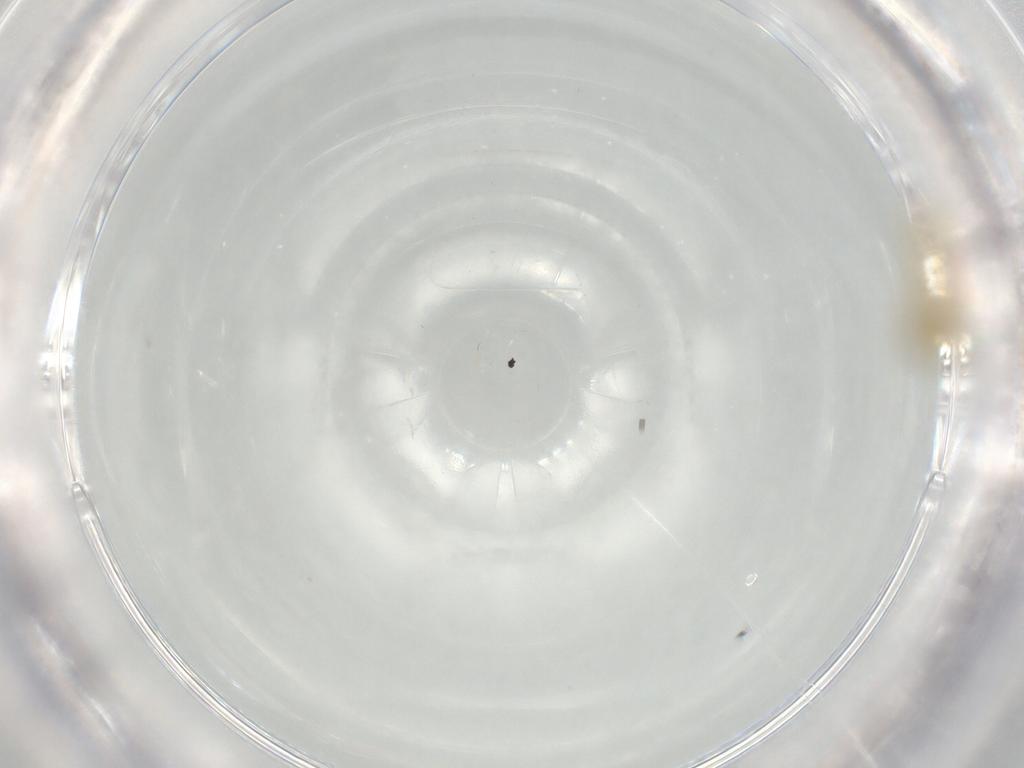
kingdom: Animalia
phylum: Arthropoda
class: Insecta
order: Diptera
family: Chironomidae
